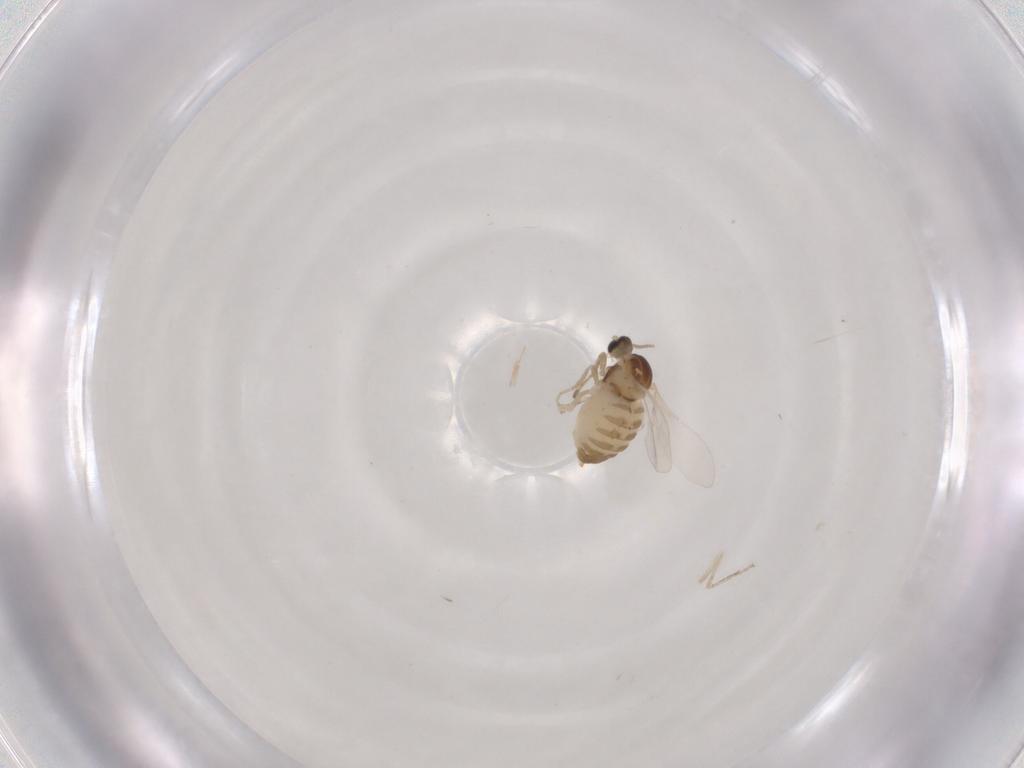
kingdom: Animalia
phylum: Arthropoda
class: Insecta
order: Diptera
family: Cecidomyiidae
